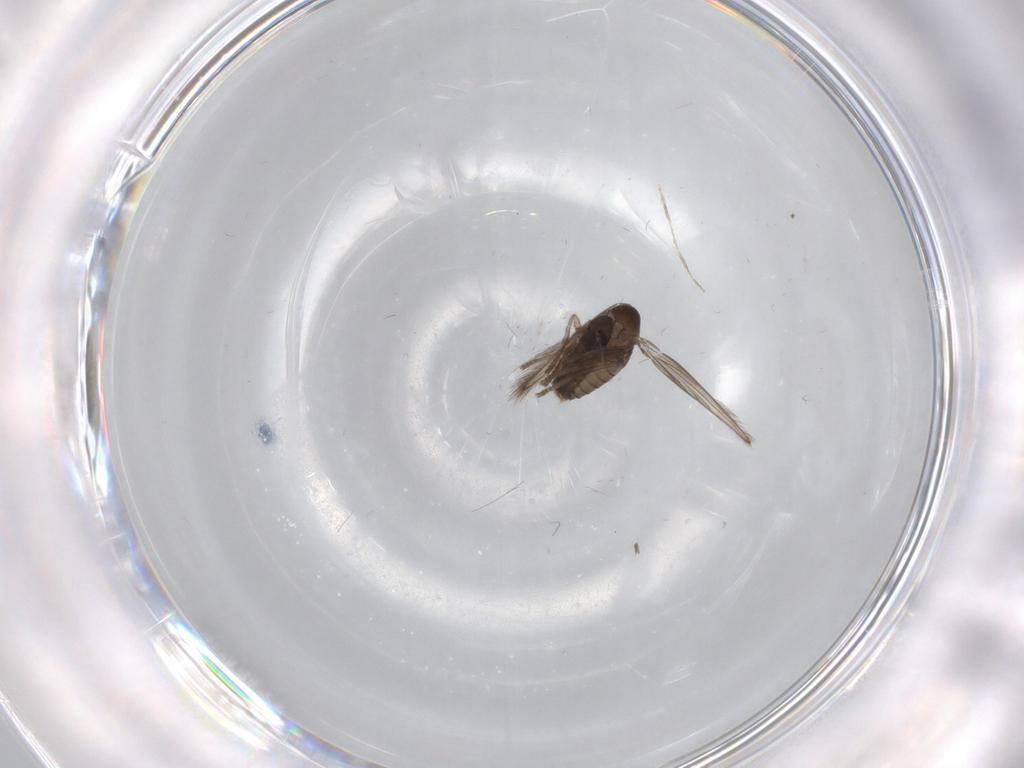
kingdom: Animalia
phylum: Arthropoda
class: Insecta
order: Diptera
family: Psychodidae
